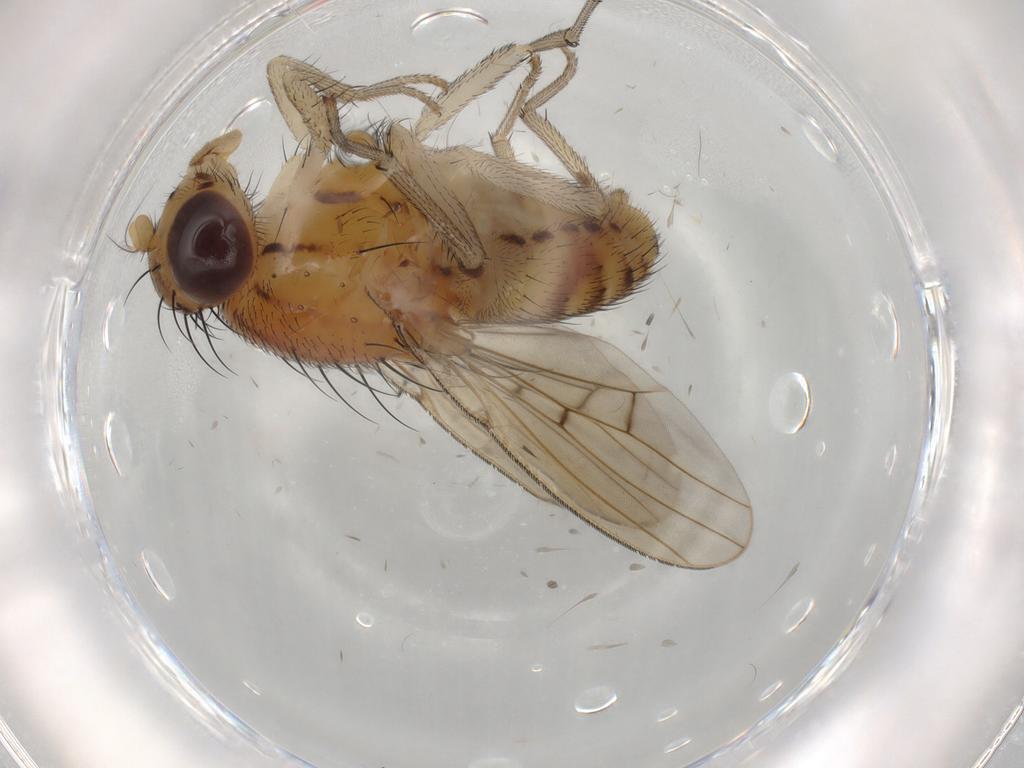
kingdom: Animalia
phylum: Arthropoda
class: Insecta
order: Diptera
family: Lauxaniidae
